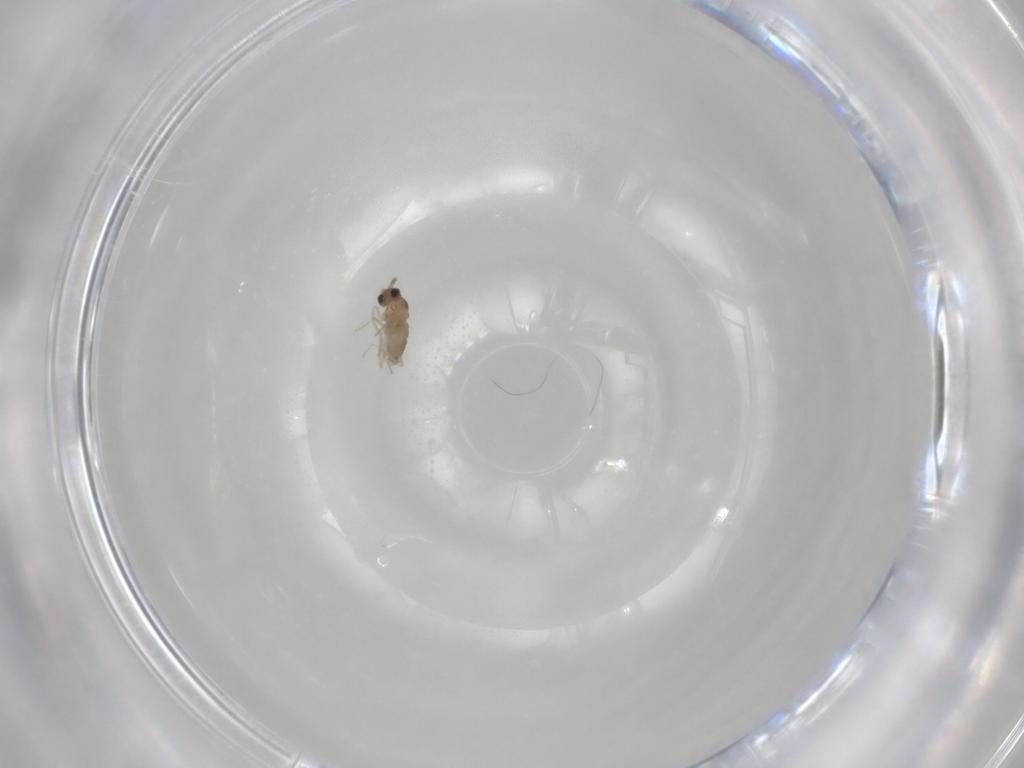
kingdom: Animalia
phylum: Arthropoda
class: Insecta
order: Diptera
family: Cecidomyiidae
